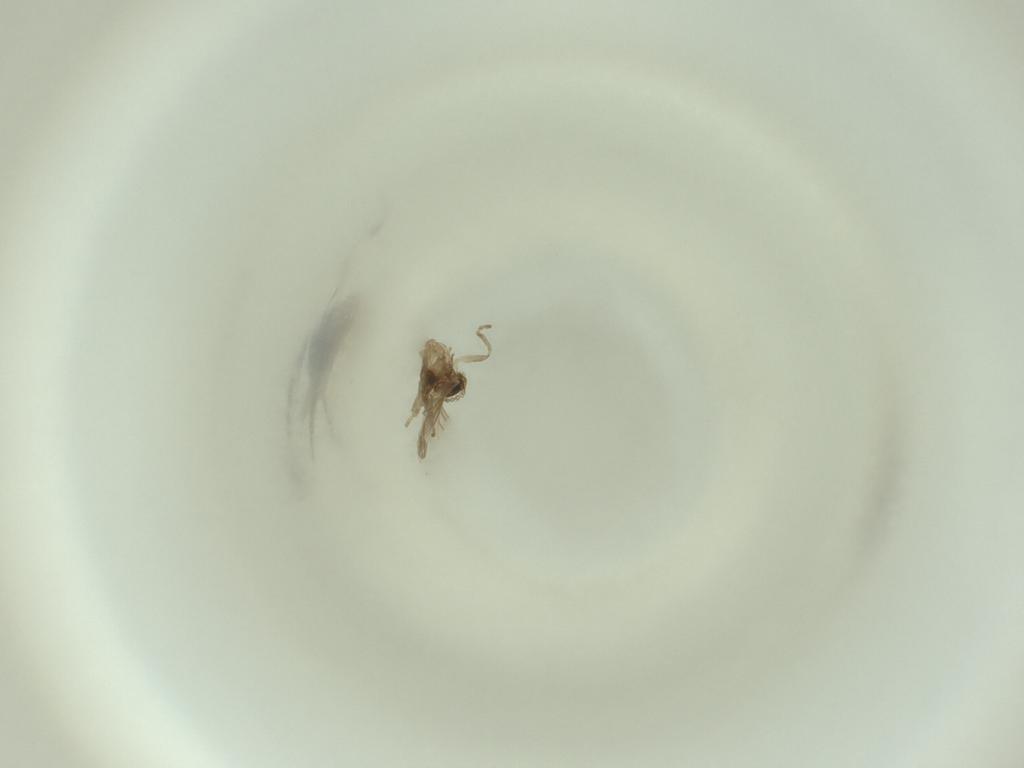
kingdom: Animalia
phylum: Arthropoda
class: Insecta
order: Diptera
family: Cecidomyiidae
